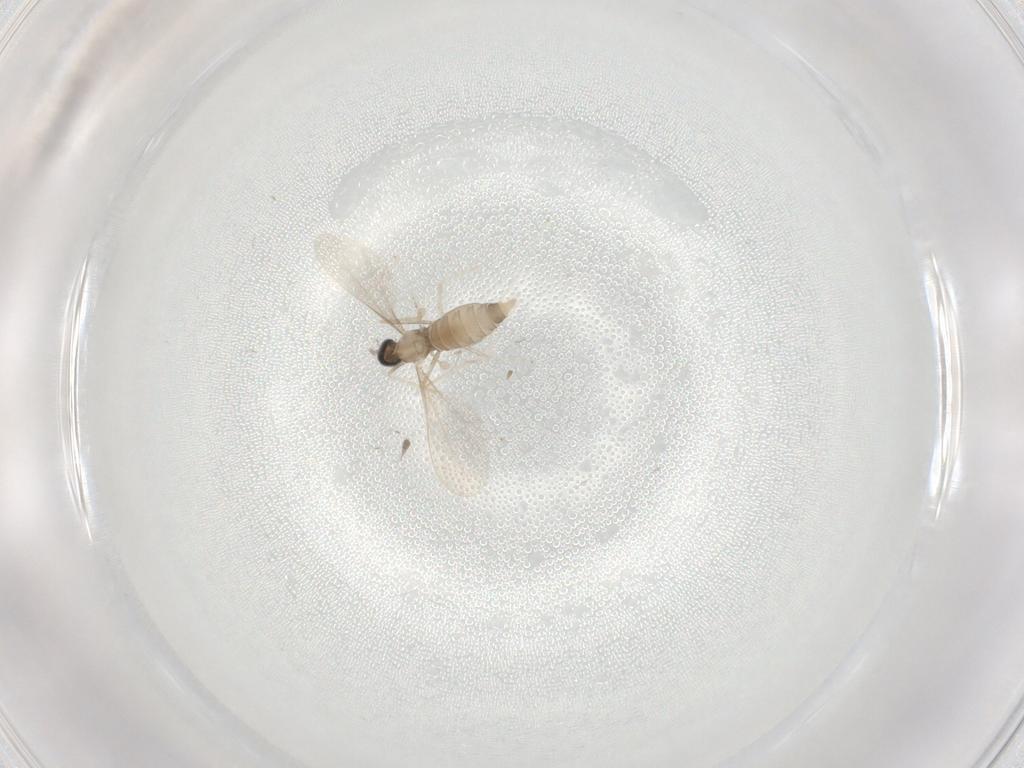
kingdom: Animalia
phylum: Arthropoda
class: Insecta
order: Diptera
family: Cecidomyiidae
